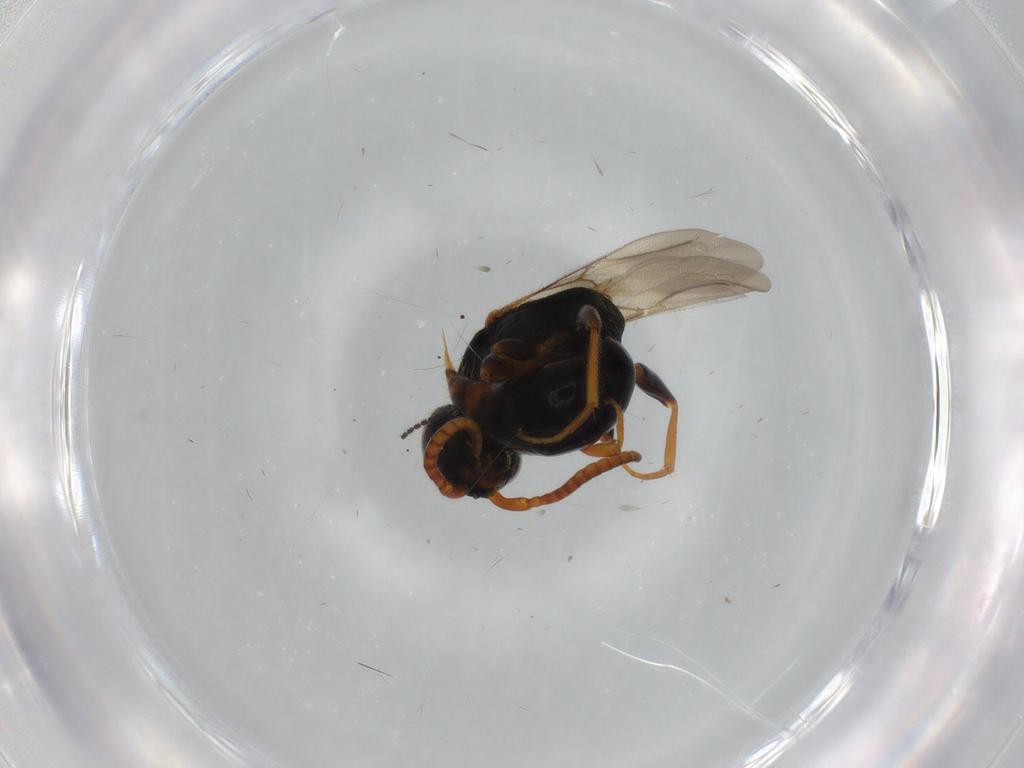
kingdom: Animalia
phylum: Arthropoda
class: Insecta
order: Hymenoptera
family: Bethylidae
